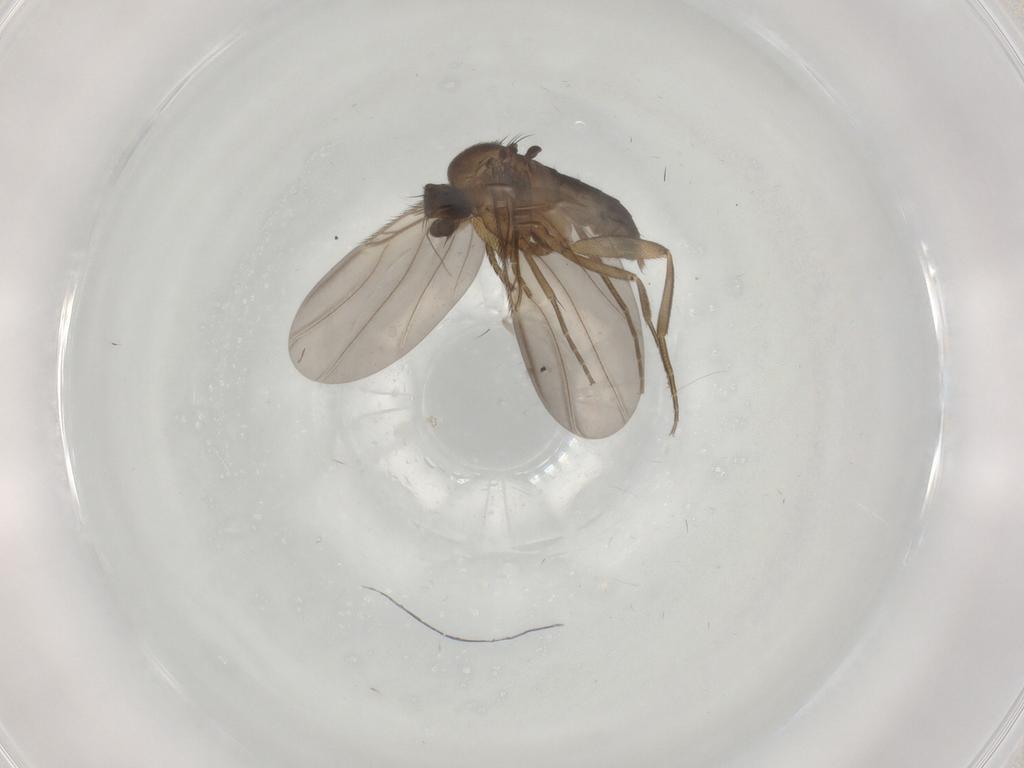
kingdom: Animalia
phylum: Arthropoda
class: Insecta
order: Diptera
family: Phoridae
